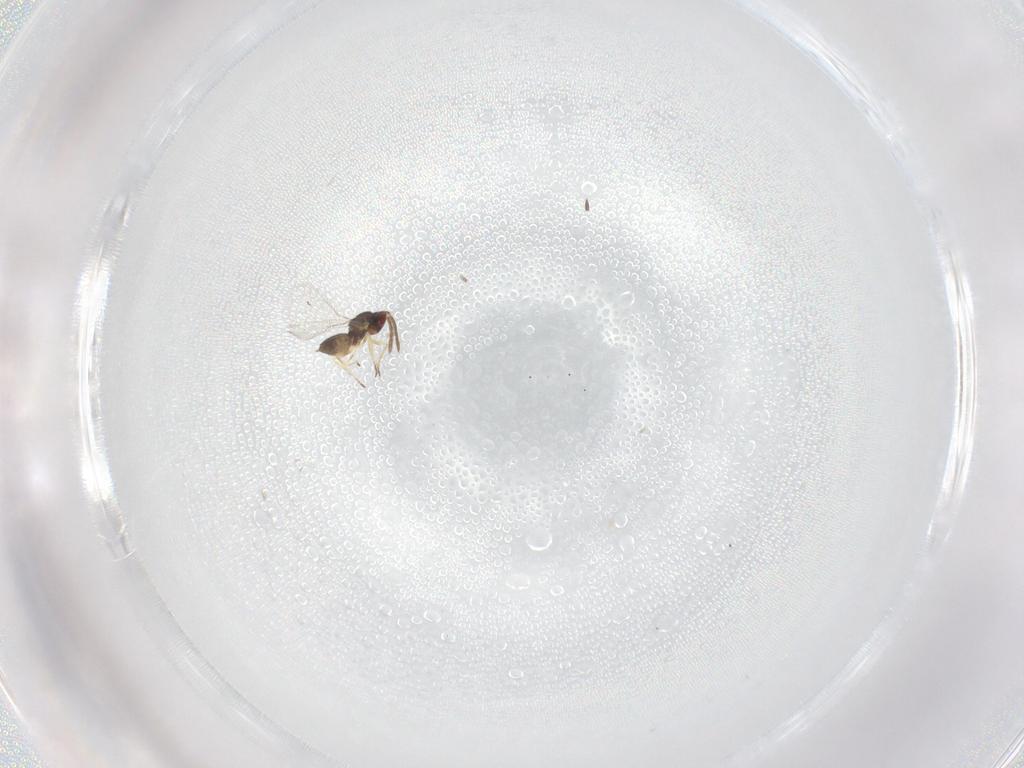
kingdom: Animalia
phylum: Arthropoda
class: Insecta
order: Hymenoptera
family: Eulophidae
